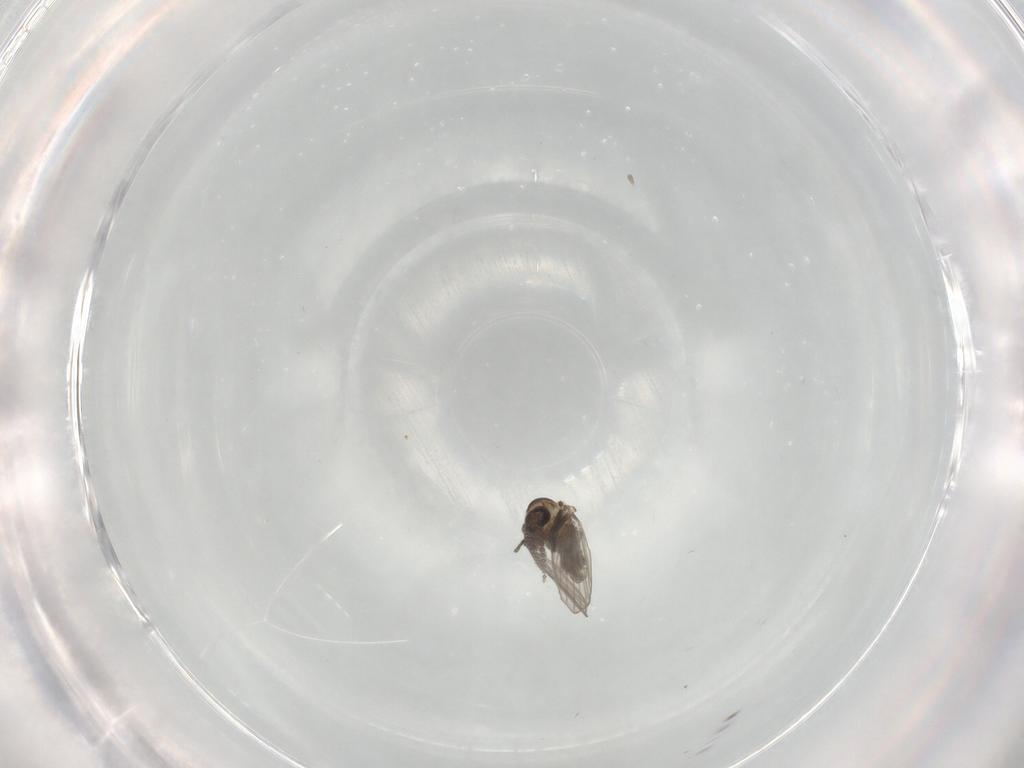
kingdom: Animalia
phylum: Arthropoda
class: Insecta
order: Diptera
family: Psychodidae
